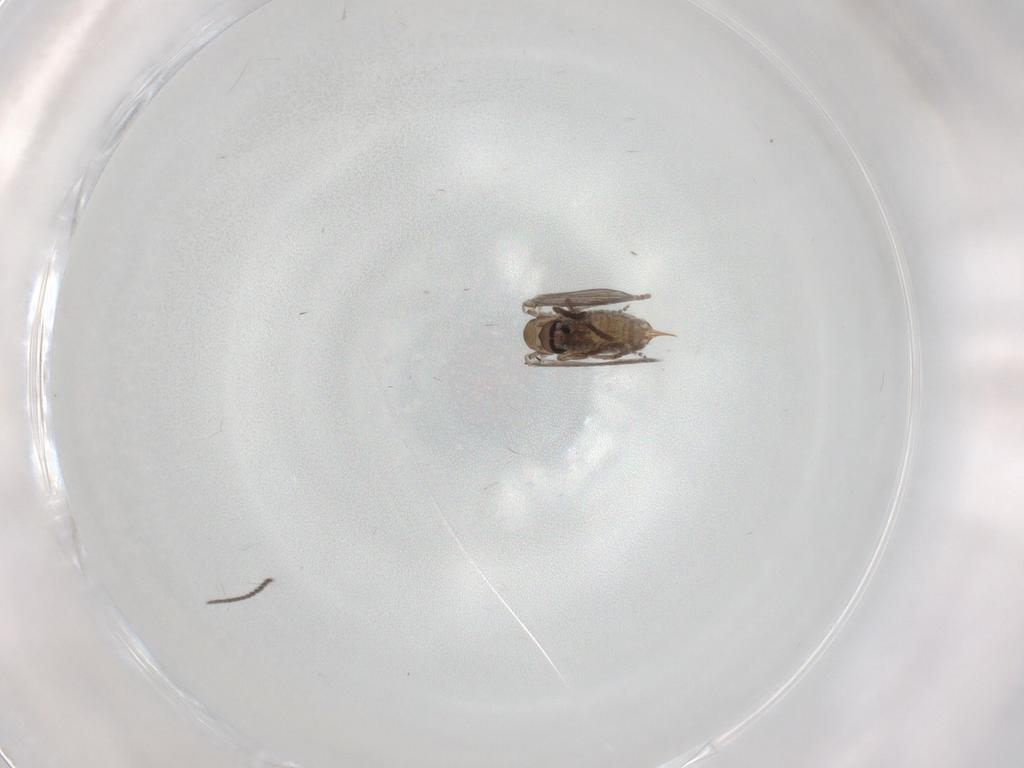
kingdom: Animalia
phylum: Arthropoda
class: Insecta
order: Diptera
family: Sciaridae
